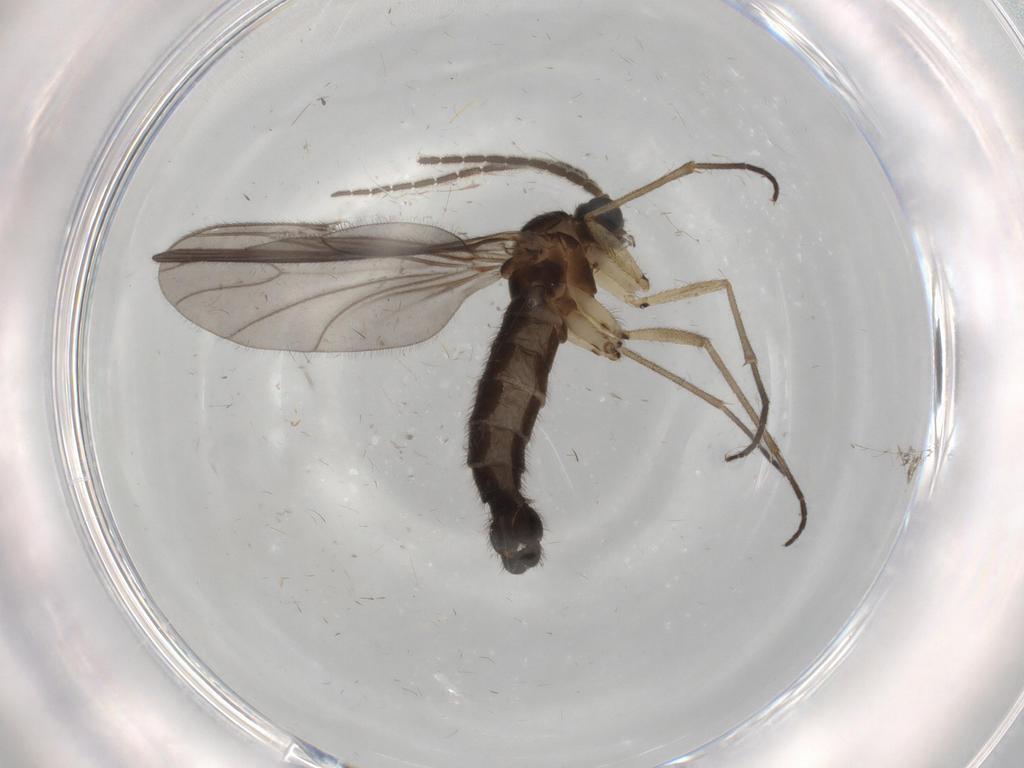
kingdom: Animalia
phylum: Arthropoda
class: Insecta
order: Diptera
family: Sciaridae
